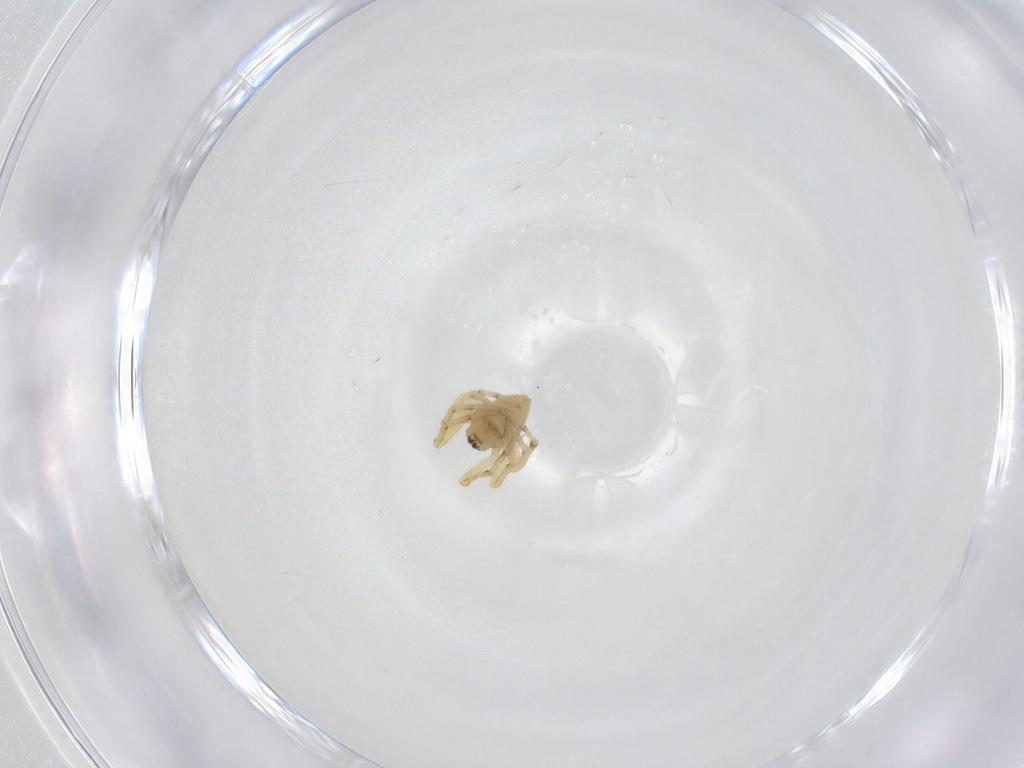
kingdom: Animalia
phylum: Arthropoda
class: Arachnida
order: Araneae
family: Theridiidae
